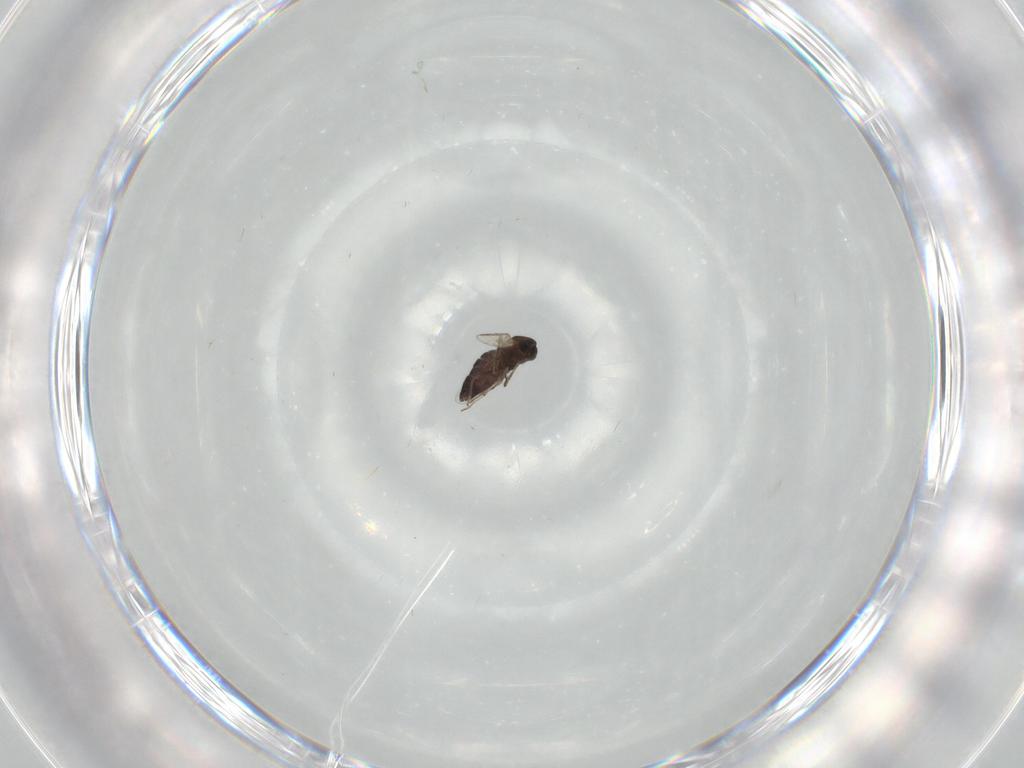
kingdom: Animalia
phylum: Arthropoda
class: Insecta
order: Diptera
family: Chironomidae
